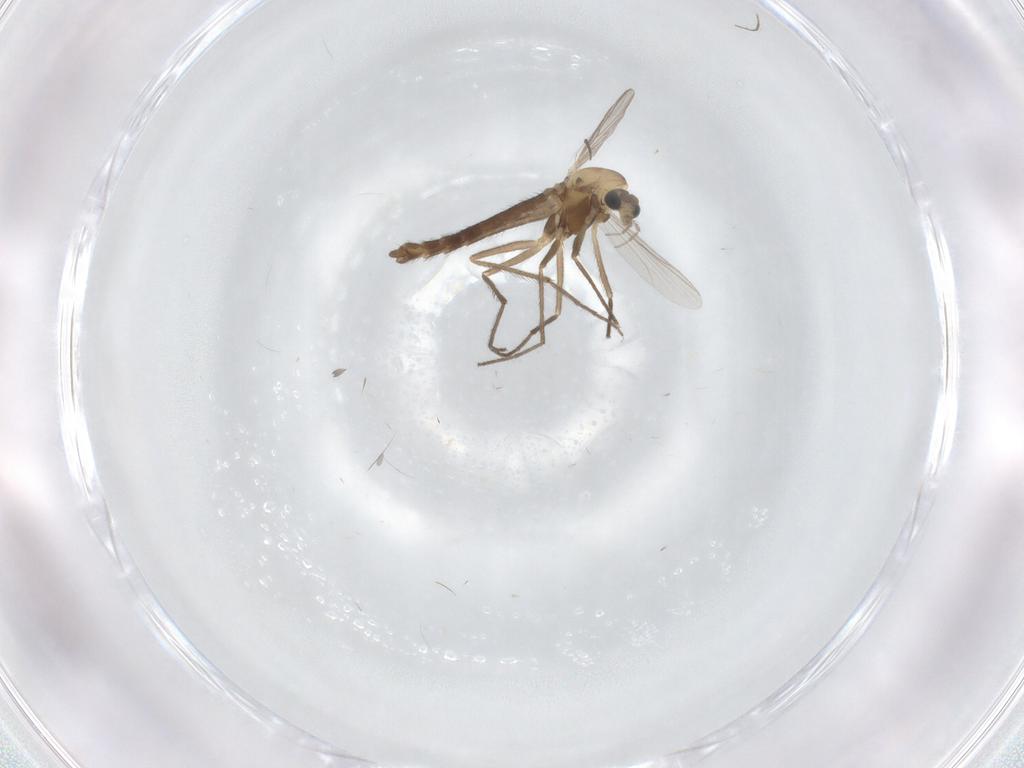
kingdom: Animalia
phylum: Arthropoda
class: Insecta
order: Diptera
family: Chironomidae
